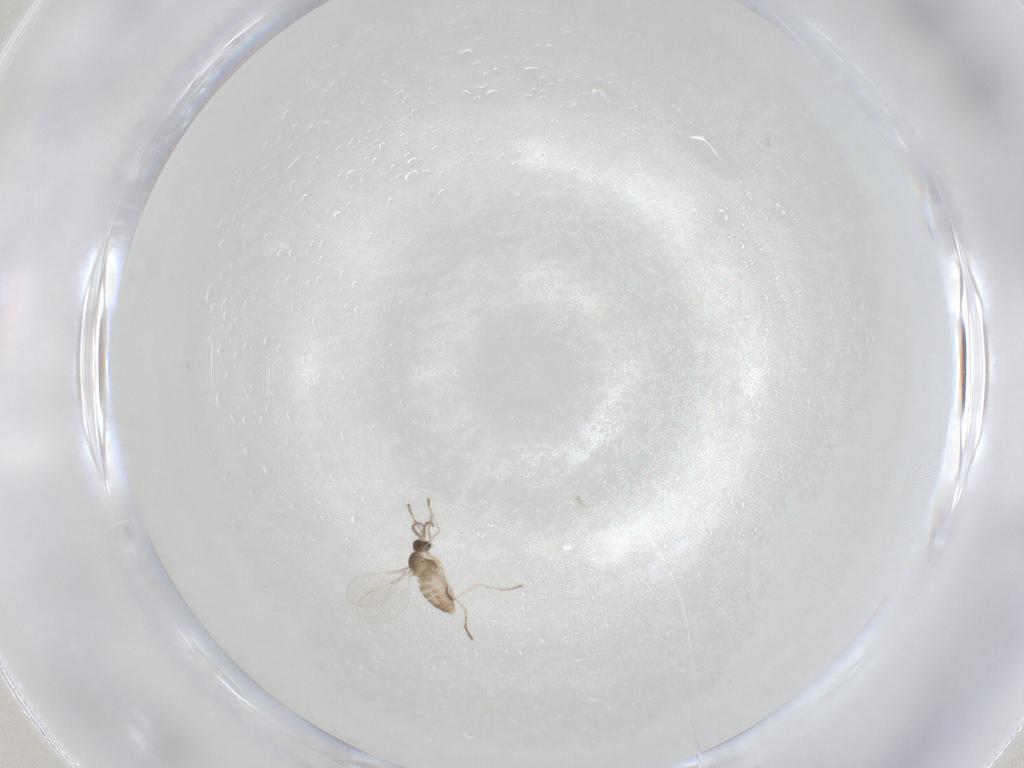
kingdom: Animalia
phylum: Arthropoda
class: Insecta
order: Diptera
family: Cecidomyiidae
